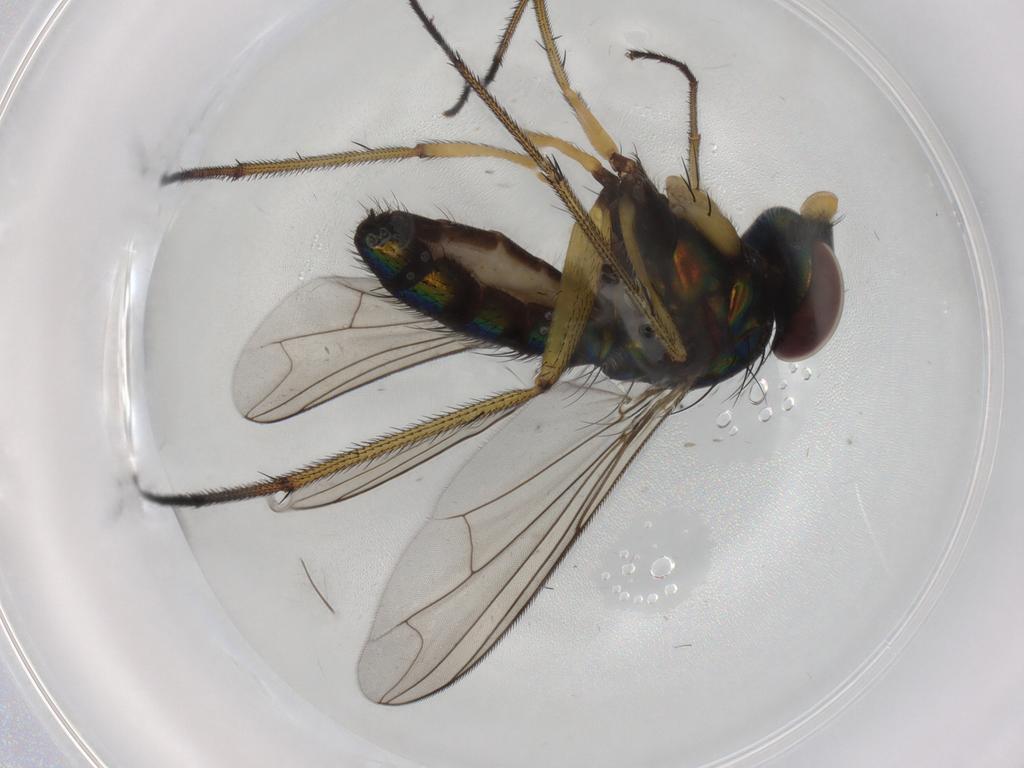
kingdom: Animalia
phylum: Arthropoda
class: Insecta
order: Diptera
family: Dolichopodidae
